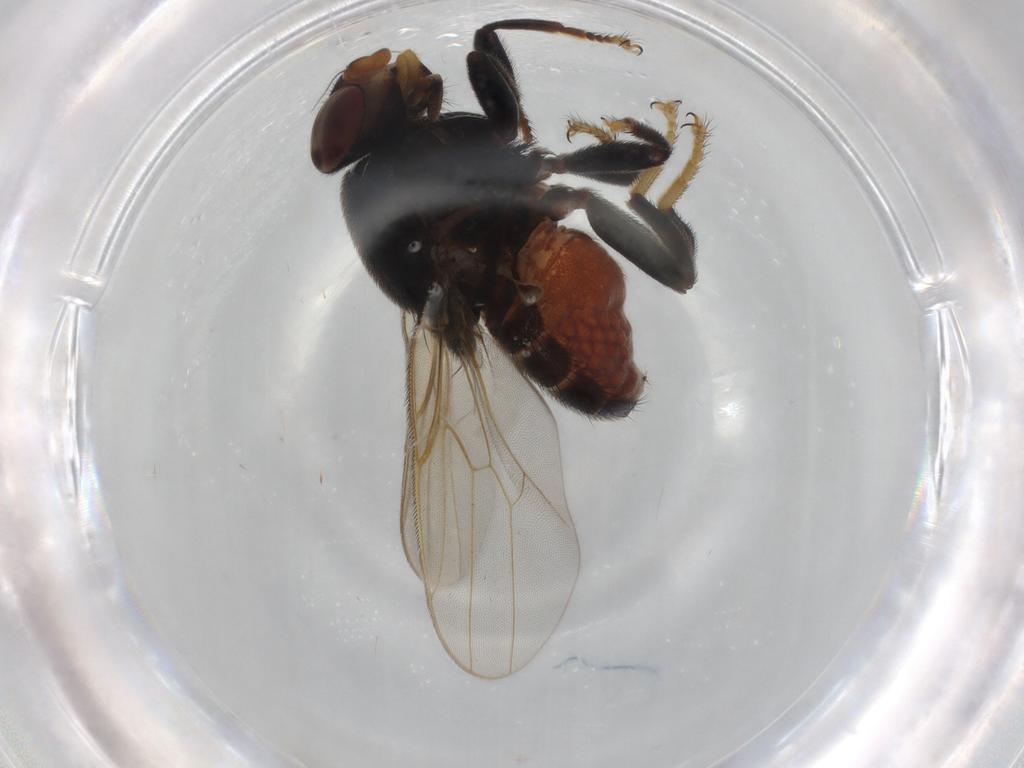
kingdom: Animalia
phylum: Arthropoda
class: Insecta
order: Diptera
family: Chloropidae
